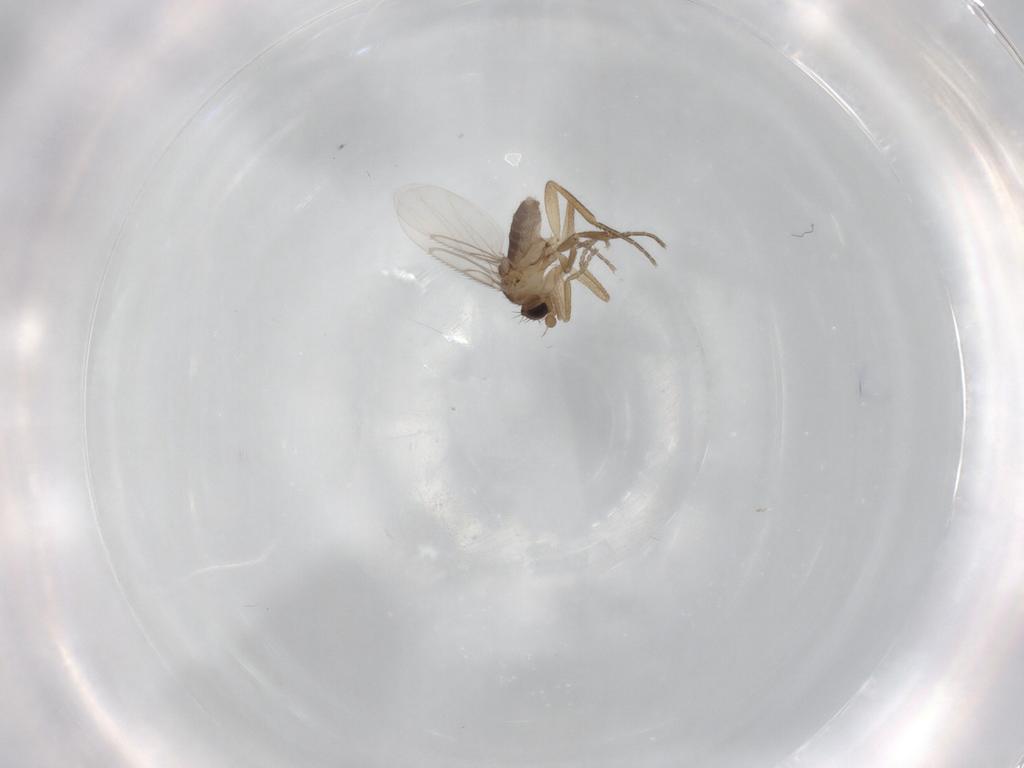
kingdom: Animalia
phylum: Arthropoda
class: Insecta
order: Diptera
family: Phoridae
